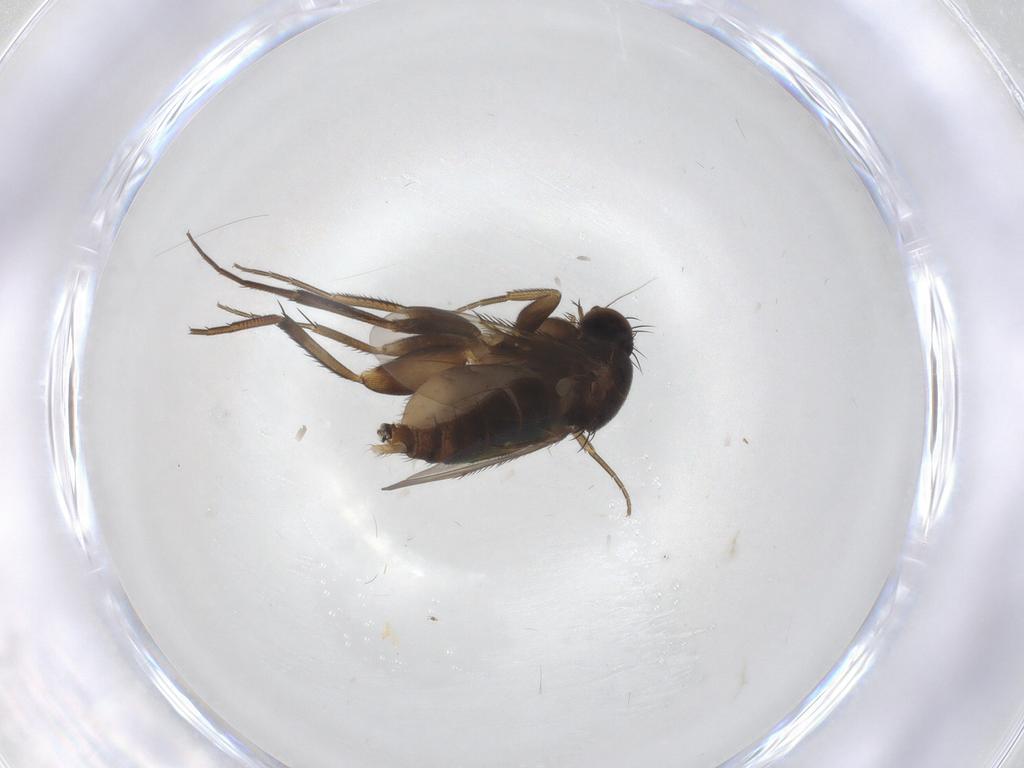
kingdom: Animalia
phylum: Arthropoda
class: Insecta
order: Diptera
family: Phoridae
